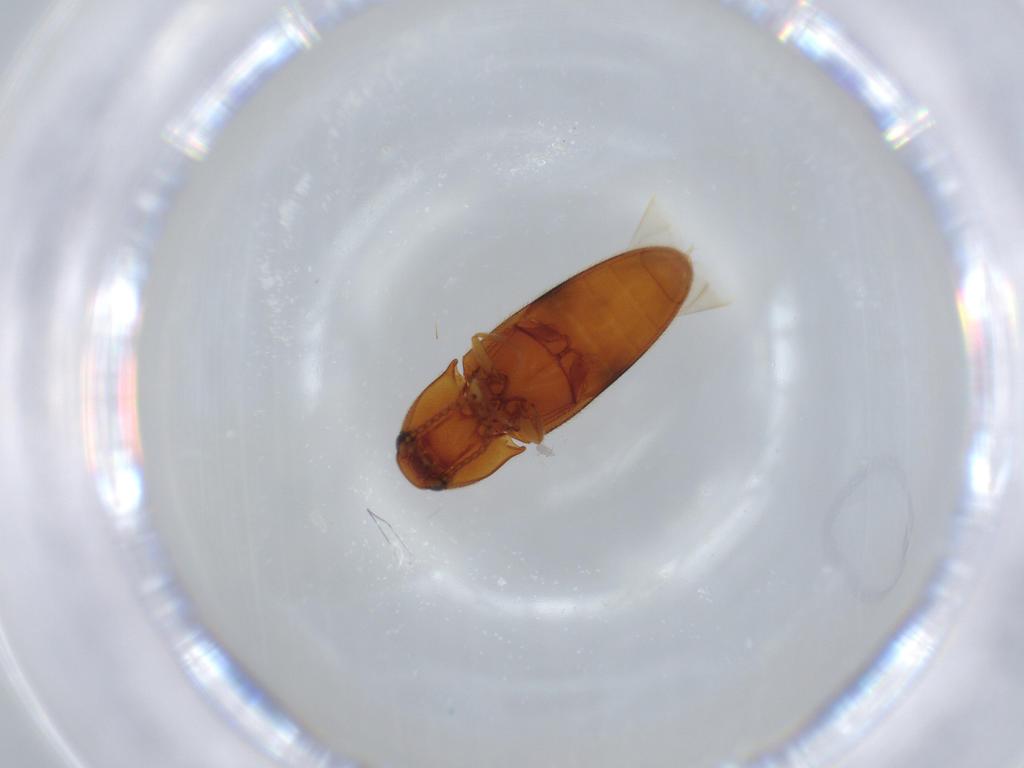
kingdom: Animalia
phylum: Arthropoda
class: Insecta
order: Coleoptera
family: Elateridae
